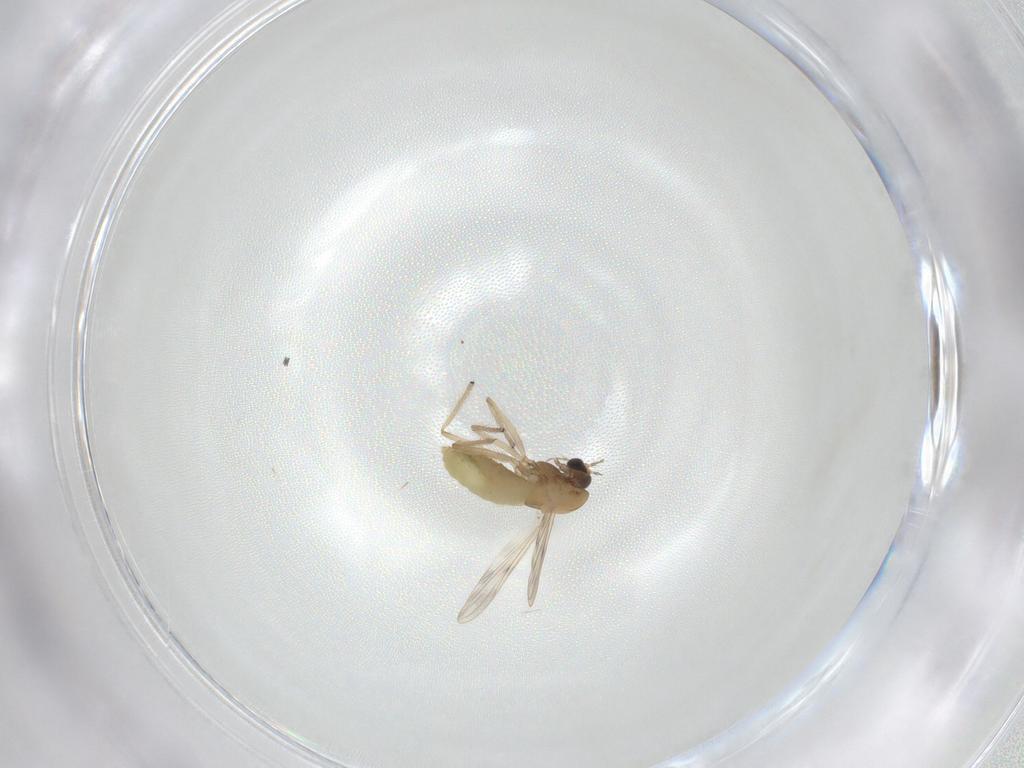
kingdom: Animalia
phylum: Arthropoda
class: Insecta
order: Diptera
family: Chironomidae
